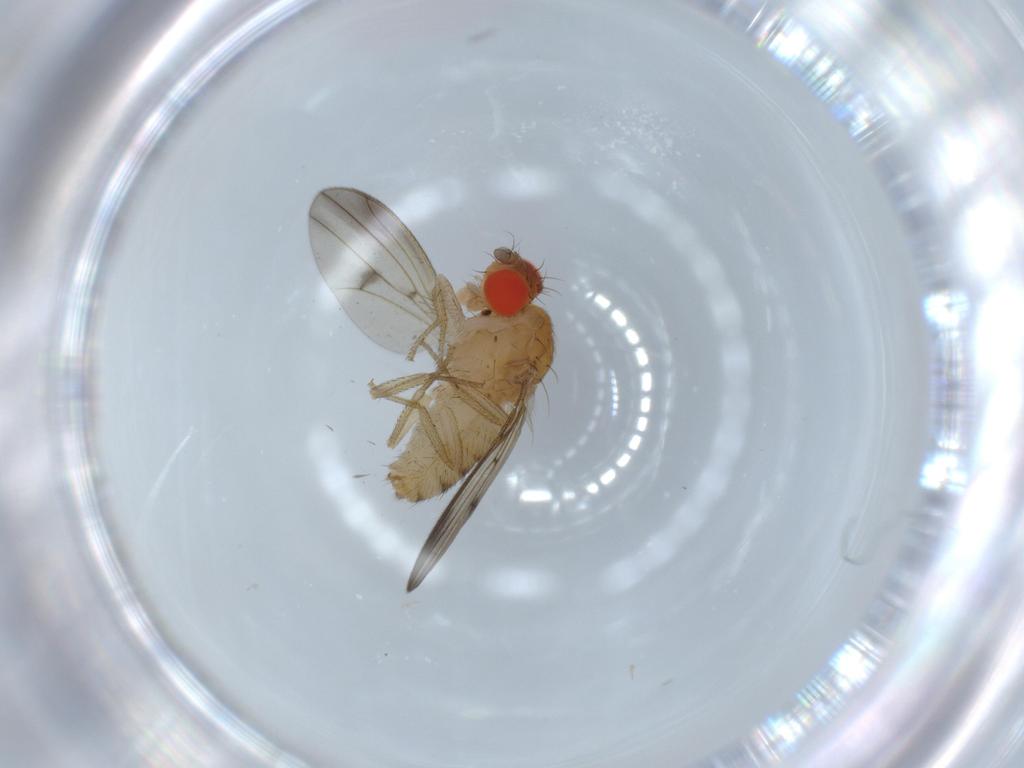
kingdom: Animalia
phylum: Arthropoda
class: Insecta
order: Diptera
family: Drosophilidae
